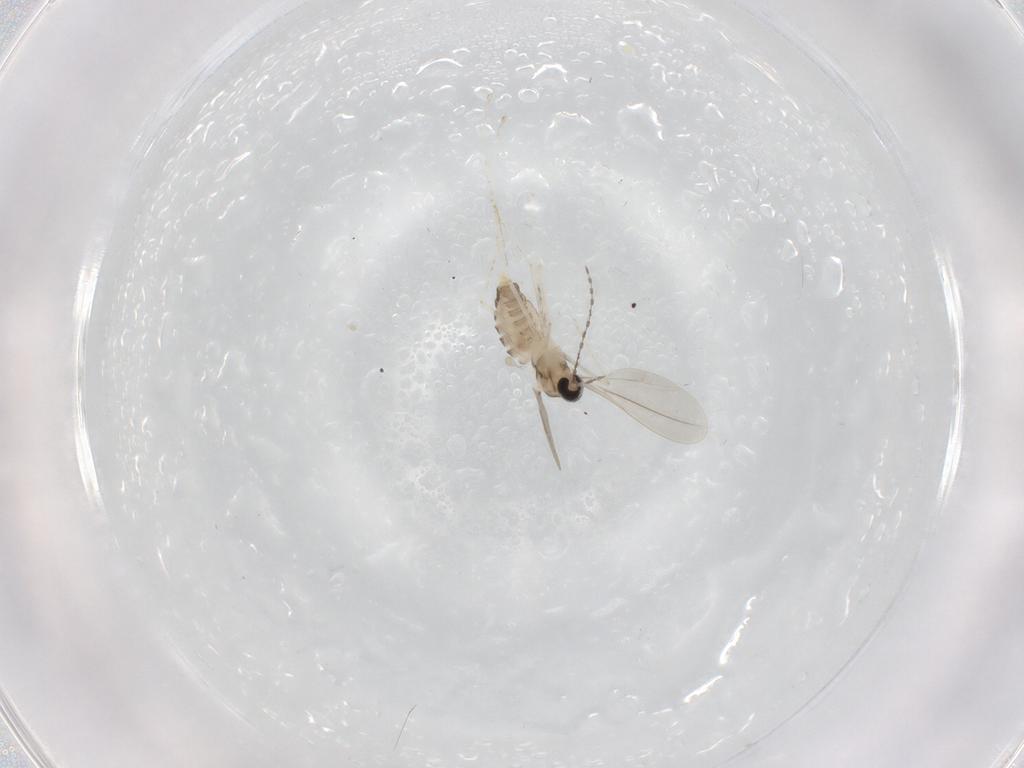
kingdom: Animalia
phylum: Arthropoda
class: Insecta
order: Diptera
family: Cecidomyiidae
